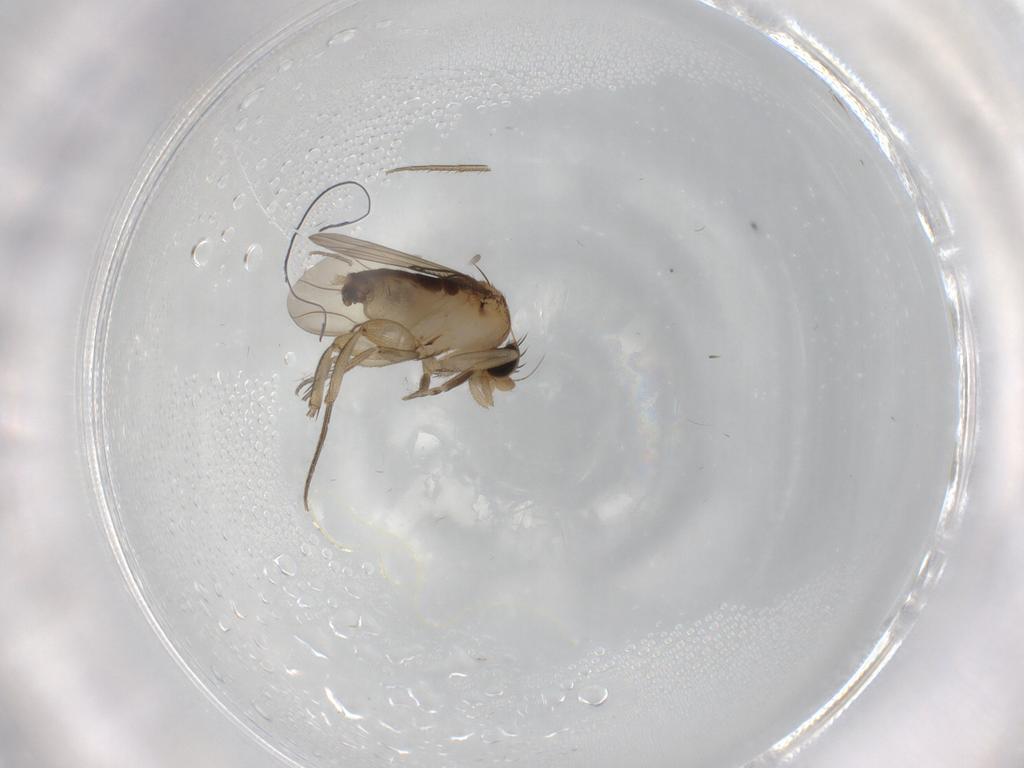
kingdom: Animalia
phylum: Arthropoda
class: Insecta
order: Diptera
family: Phoridae
